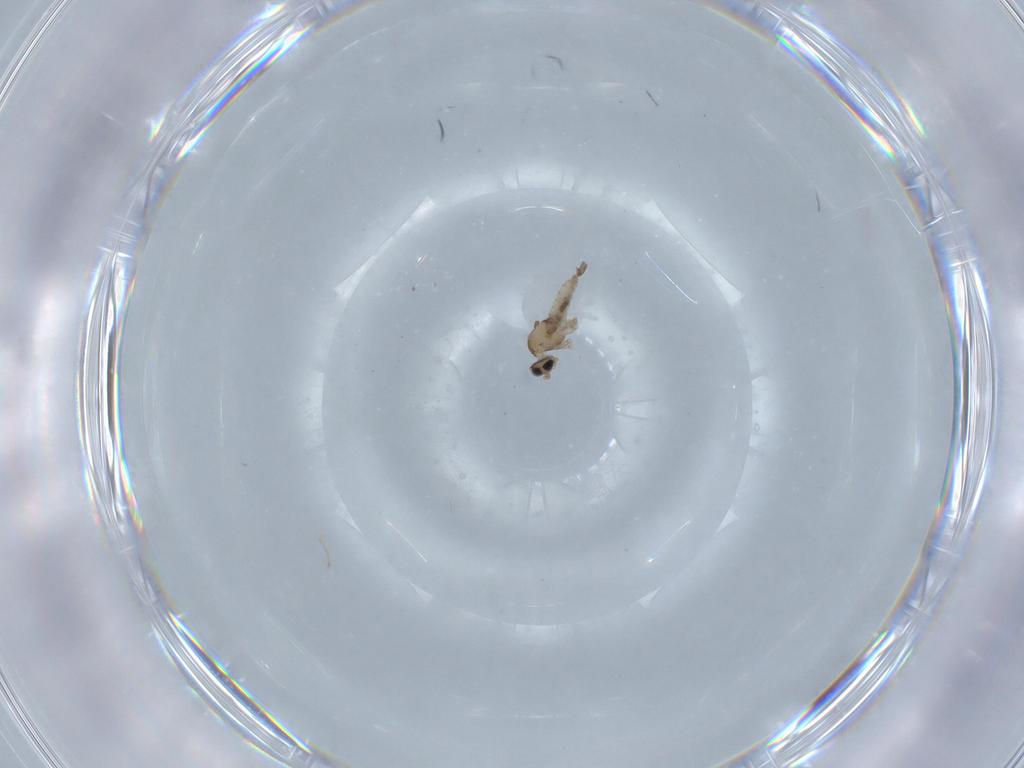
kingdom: Animalia
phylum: Arthropoda
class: Insecta
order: Diptera
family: Cecidomyiidae
